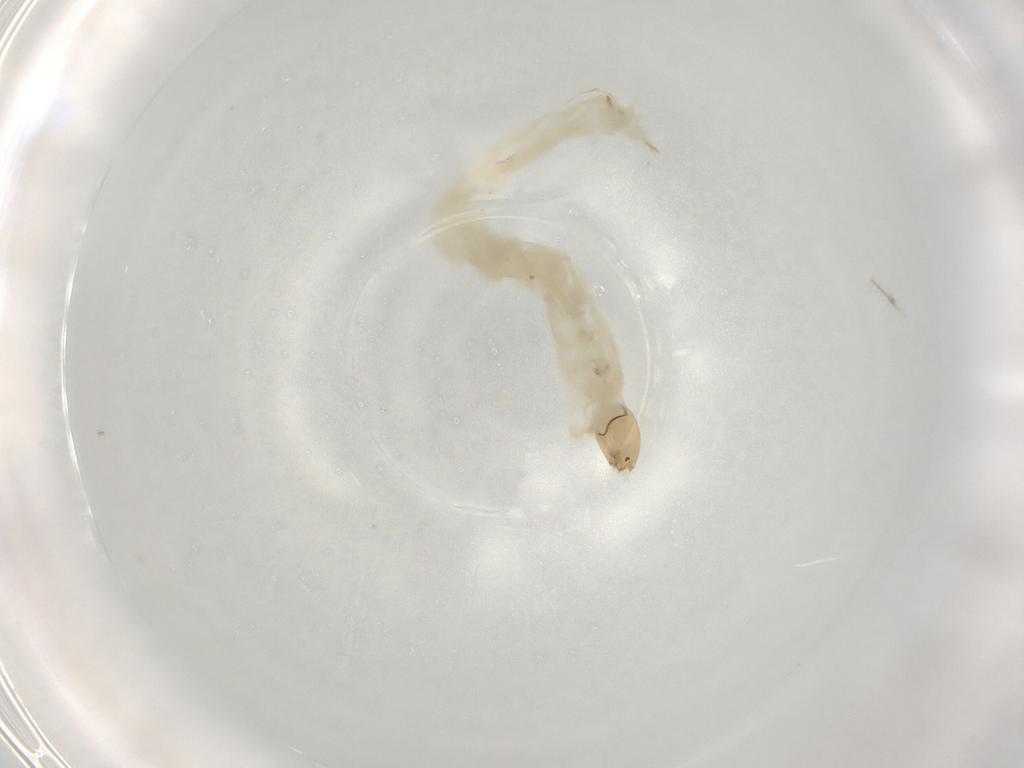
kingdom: Animalia
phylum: Arthropoda
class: Insecta
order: Diptera
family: Chironomidae
